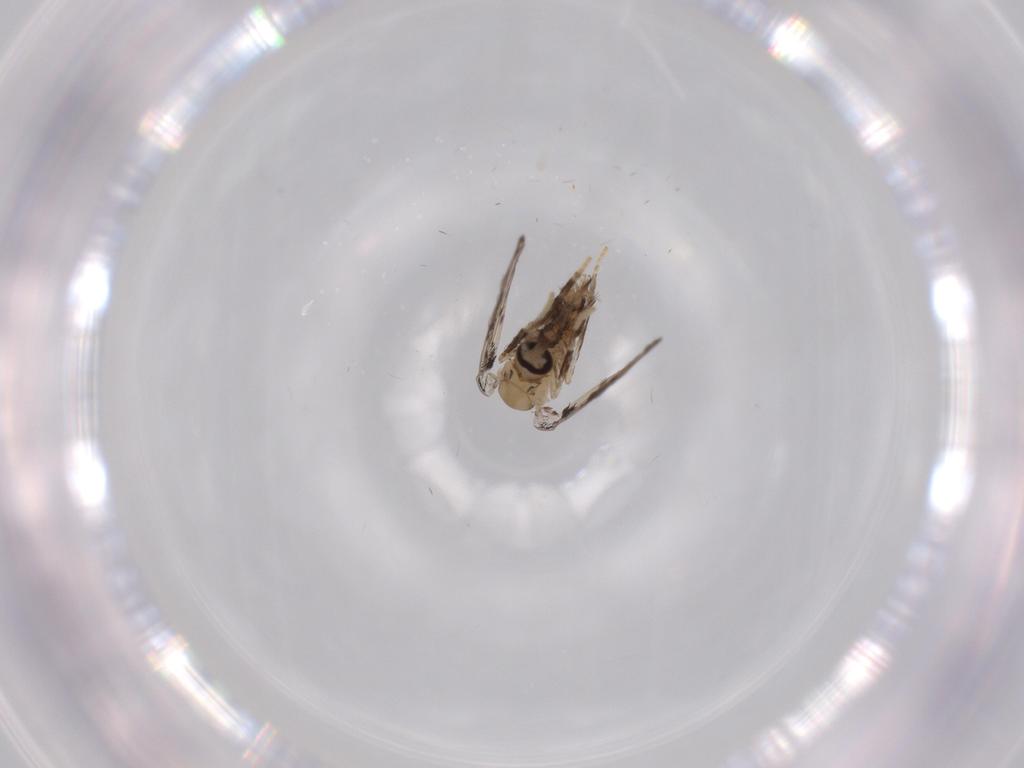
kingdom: Animalia
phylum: Arthropoda
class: Insecta
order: Diptera
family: Psychodidae
